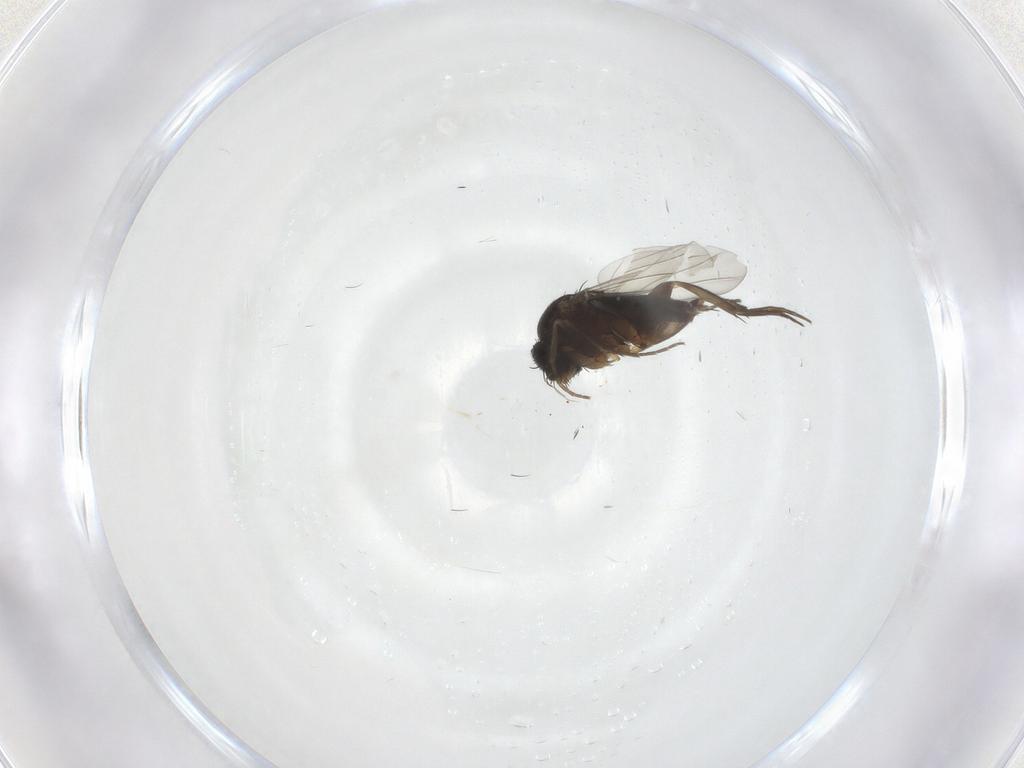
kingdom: Animalia
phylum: Arthropoda
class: Insecta
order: Diptera
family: Phoridae
